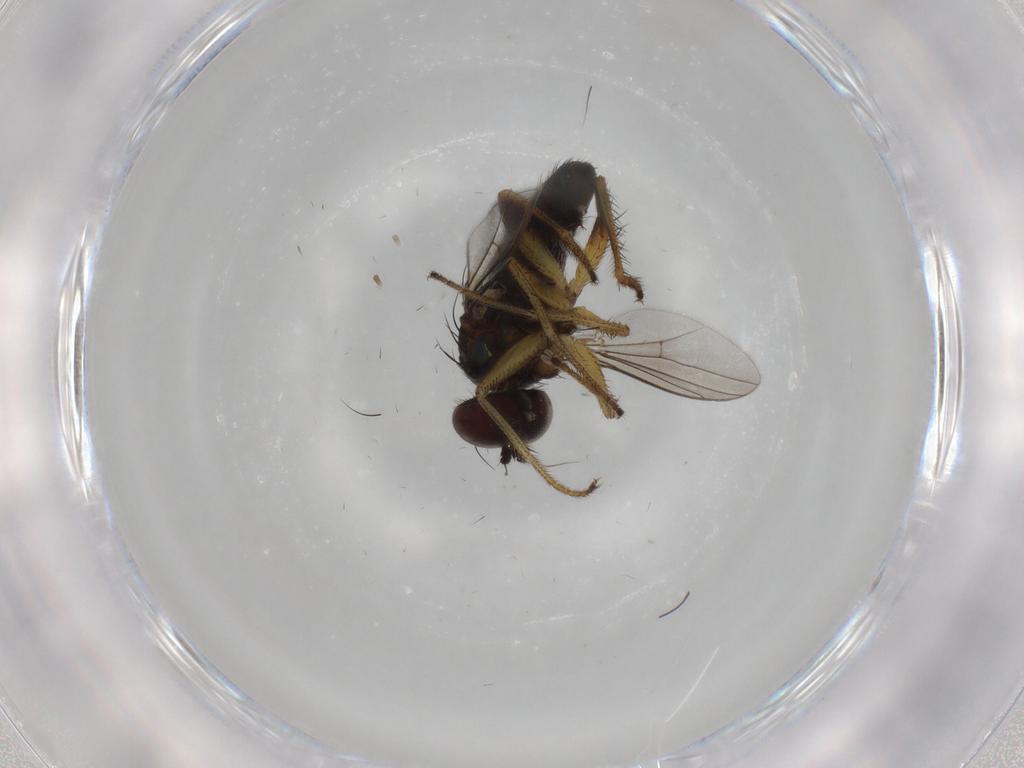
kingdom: Animalia
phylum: Arthropoda
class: Insecta
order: Diptera
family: Dolichopodidae
